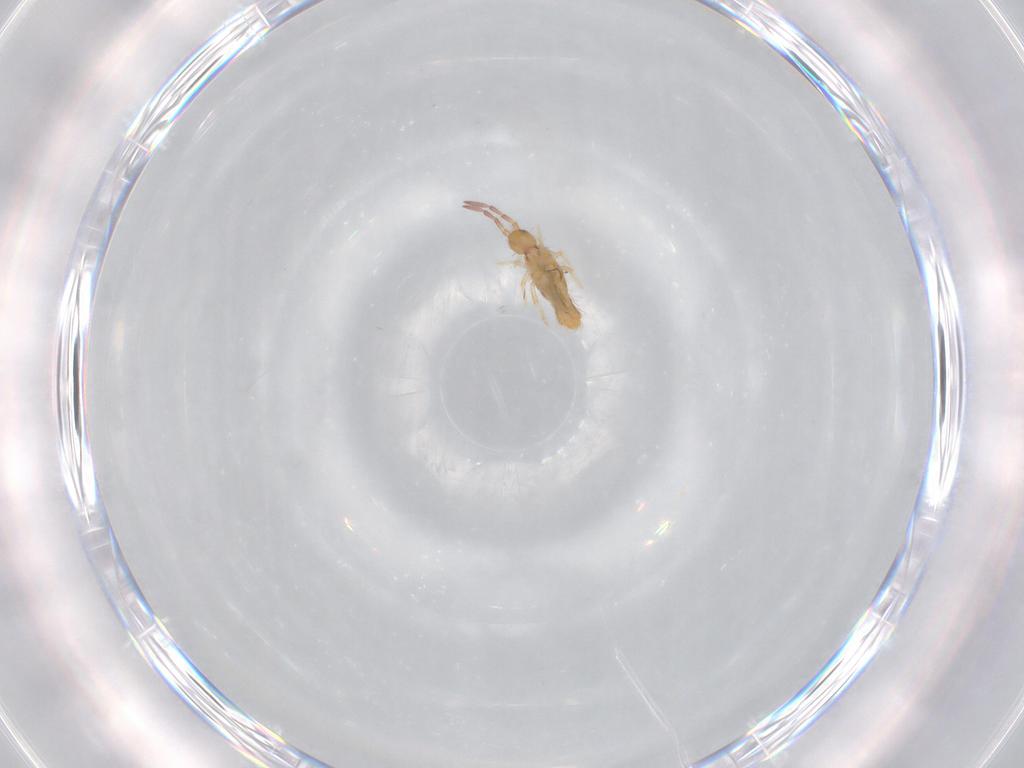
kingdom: Animalia
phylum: Arthropoda
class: Collembola
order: Entomobryomorpha
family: Entomobryidae
